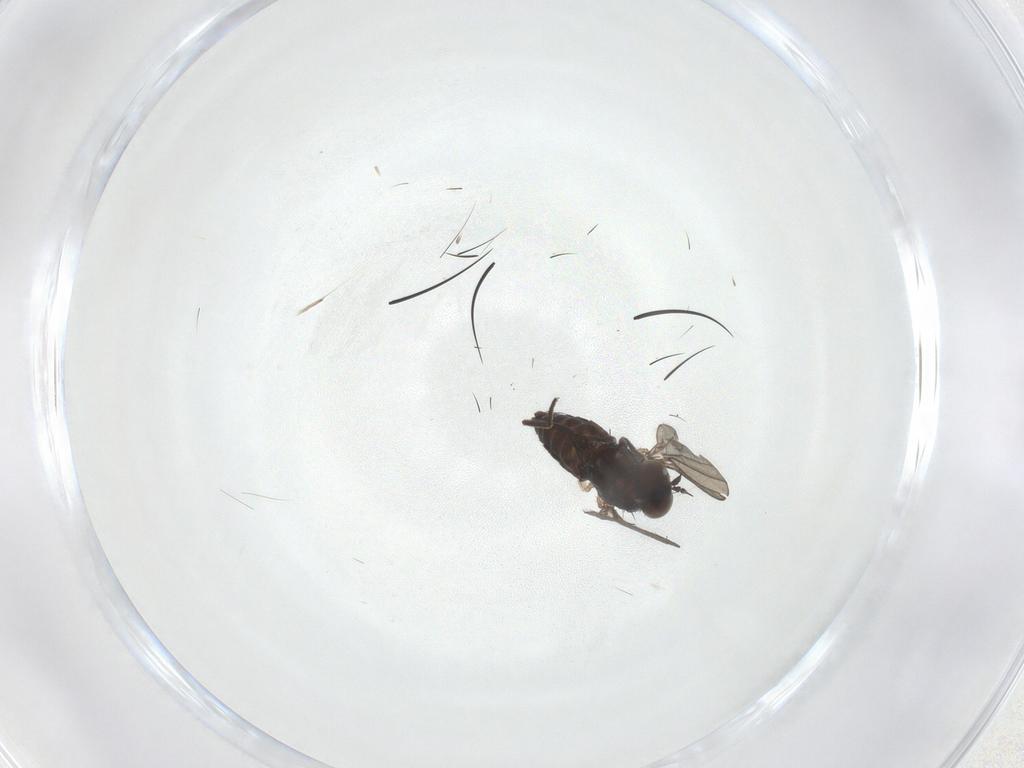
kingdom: Animalia
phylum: Arthropoda
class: Insecta
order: Diptera
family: Dolichopodidae
